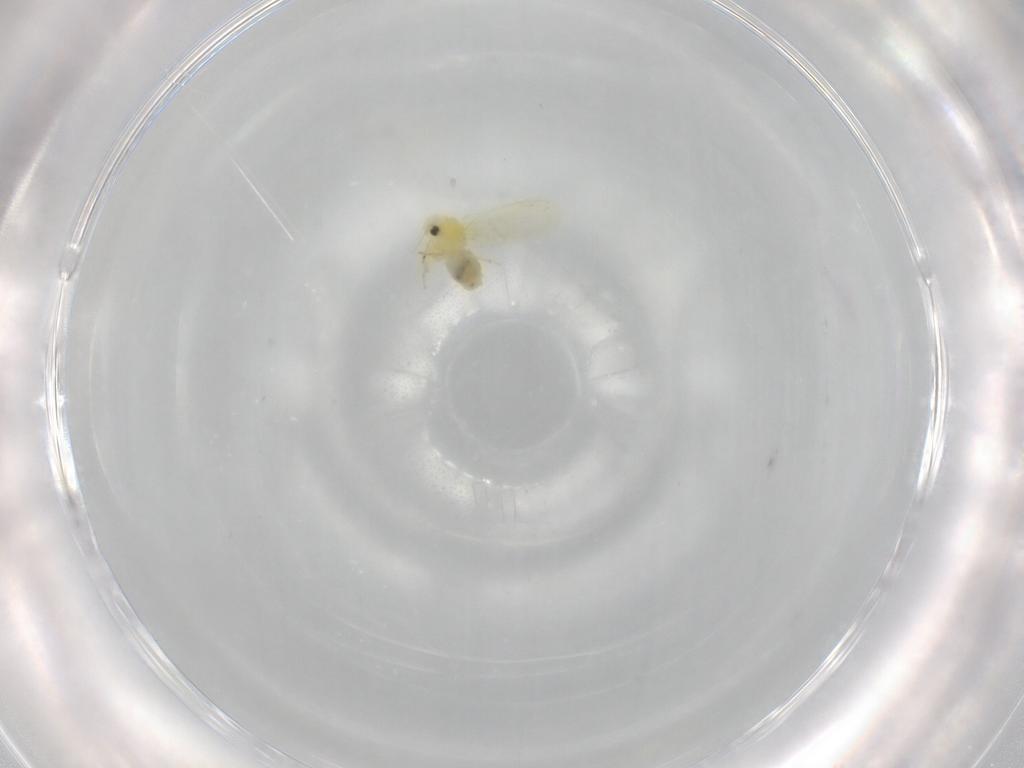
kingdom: Animalia
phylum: Arthropoda
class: Insecta
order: Hemiptera
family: Aleyrodidae
